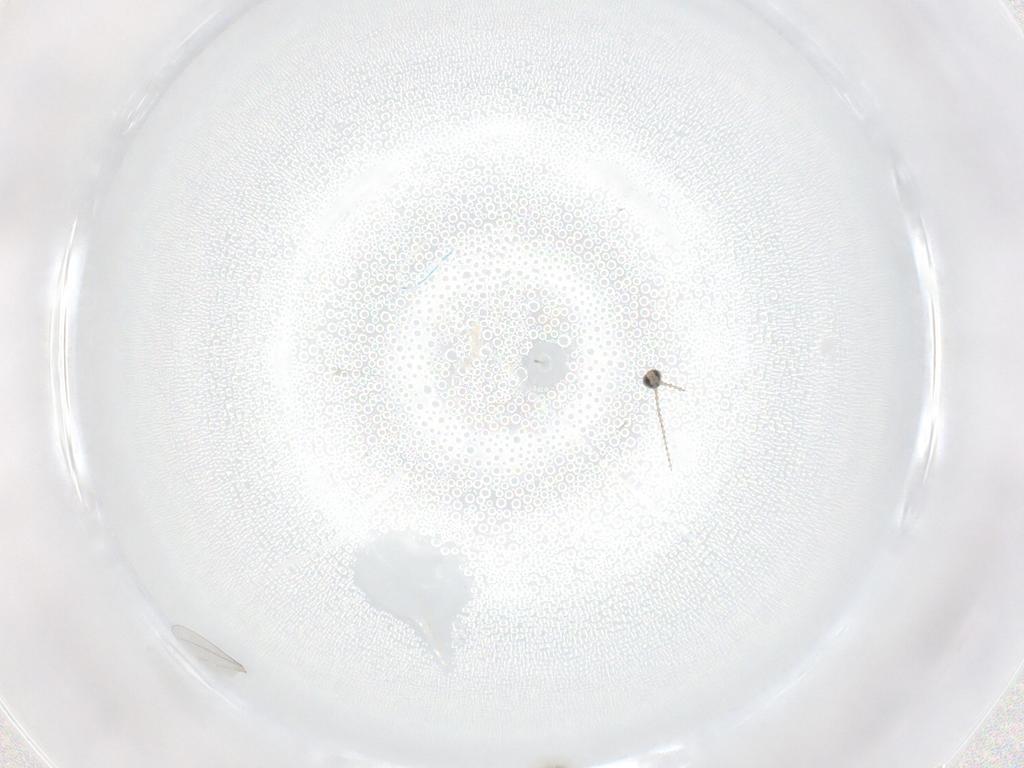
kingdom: Animalia
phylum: Arthropoda
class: Insecta
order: Diptera
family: Cecidomyiidae
